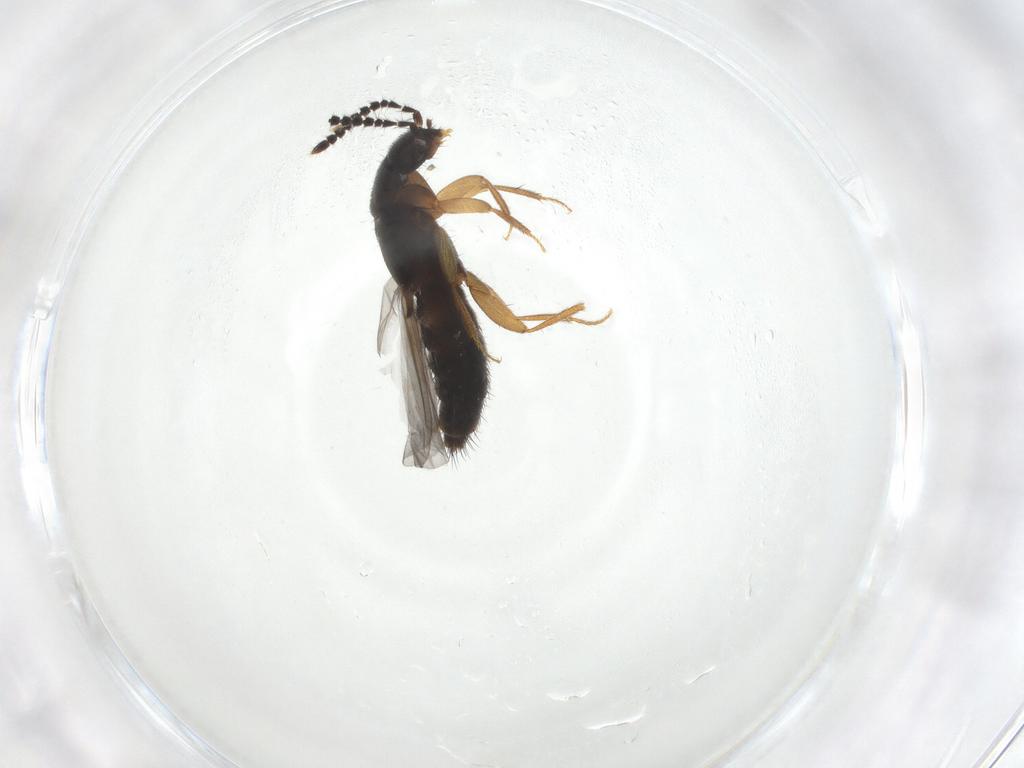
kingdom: Animalia
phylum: Arthropoda
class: Insecta
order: Coleoptera
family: Staphylinidae
